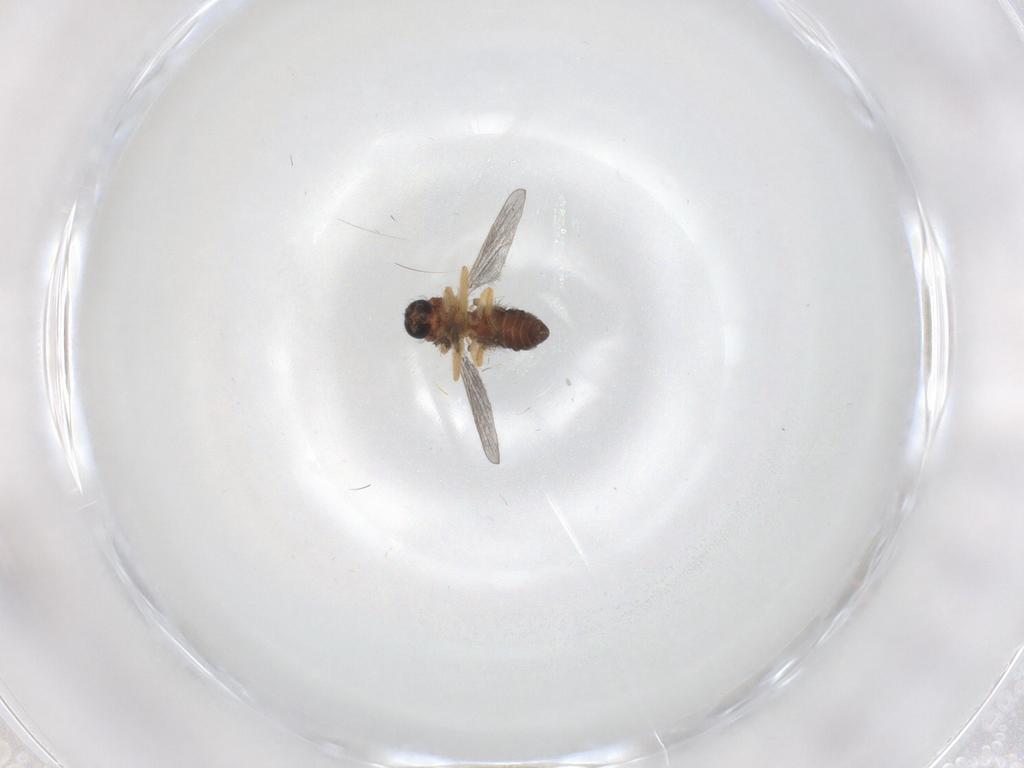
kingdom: Animalia
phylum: Arthropoda
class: Insecta
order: Diptera
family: Ceratopogonidae
